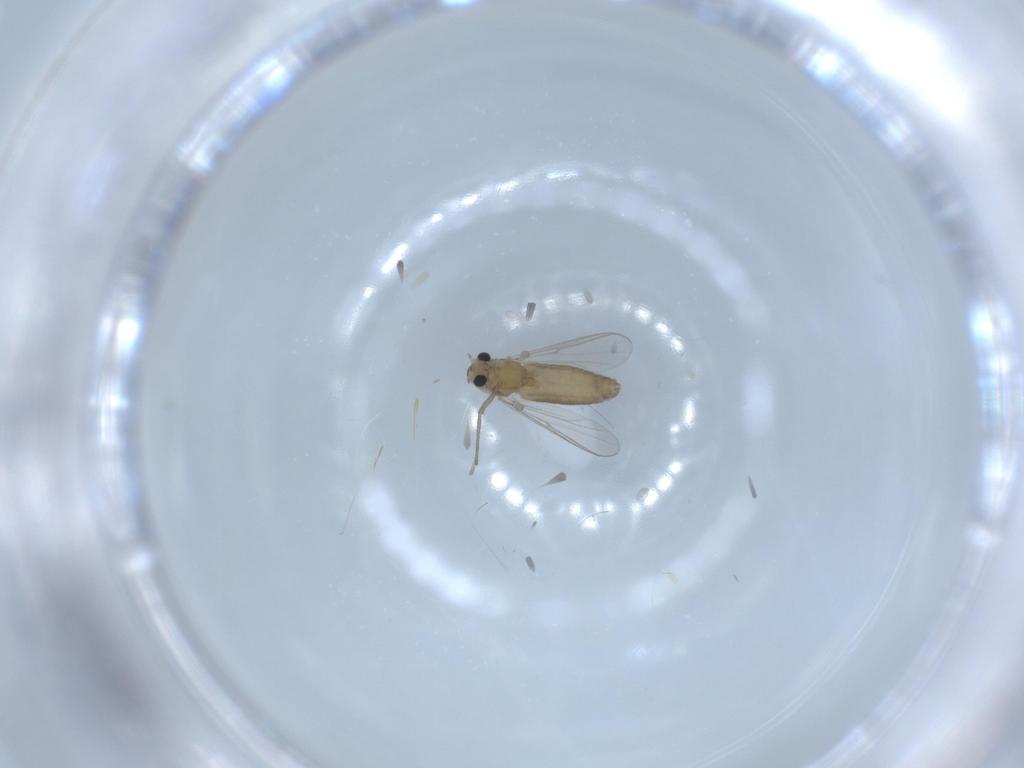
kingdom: Animalia
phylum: Arthropoda
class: Insecta
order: Diptera
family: Chironomidae
